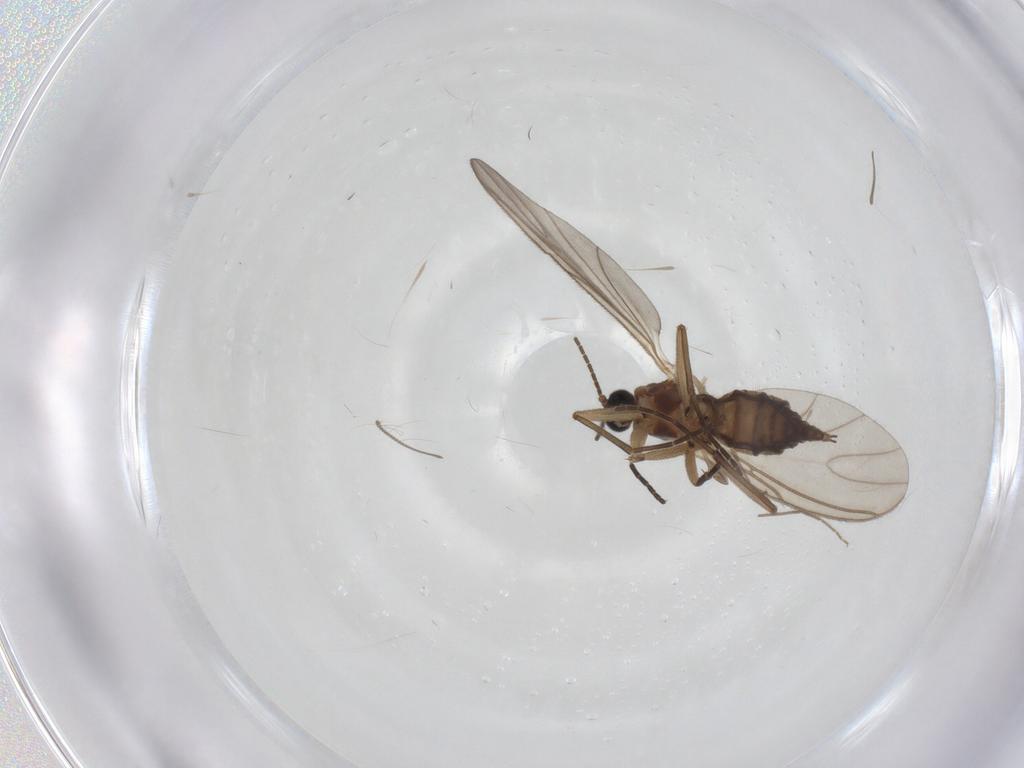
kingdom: Animalia
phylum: Arthropoda
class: Insecta
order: Diptera
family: Sciaridae
